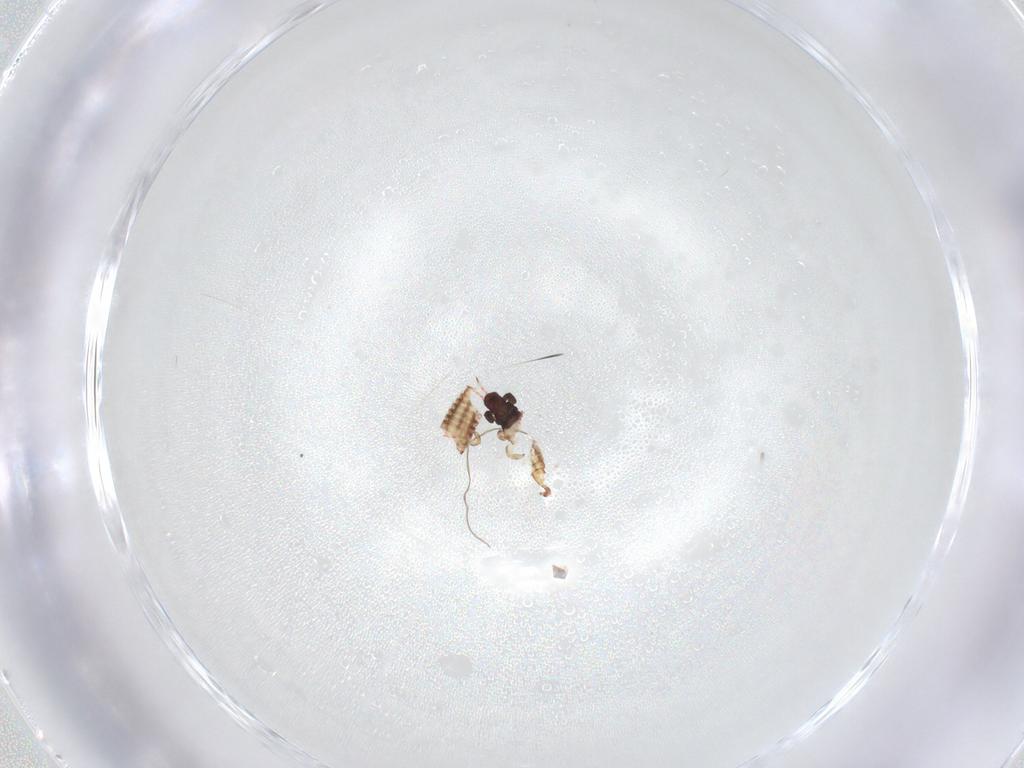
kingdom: Animalia
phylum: Arthropoda
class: Insecta
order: Thysanoptera
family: Phlaeothripidae
